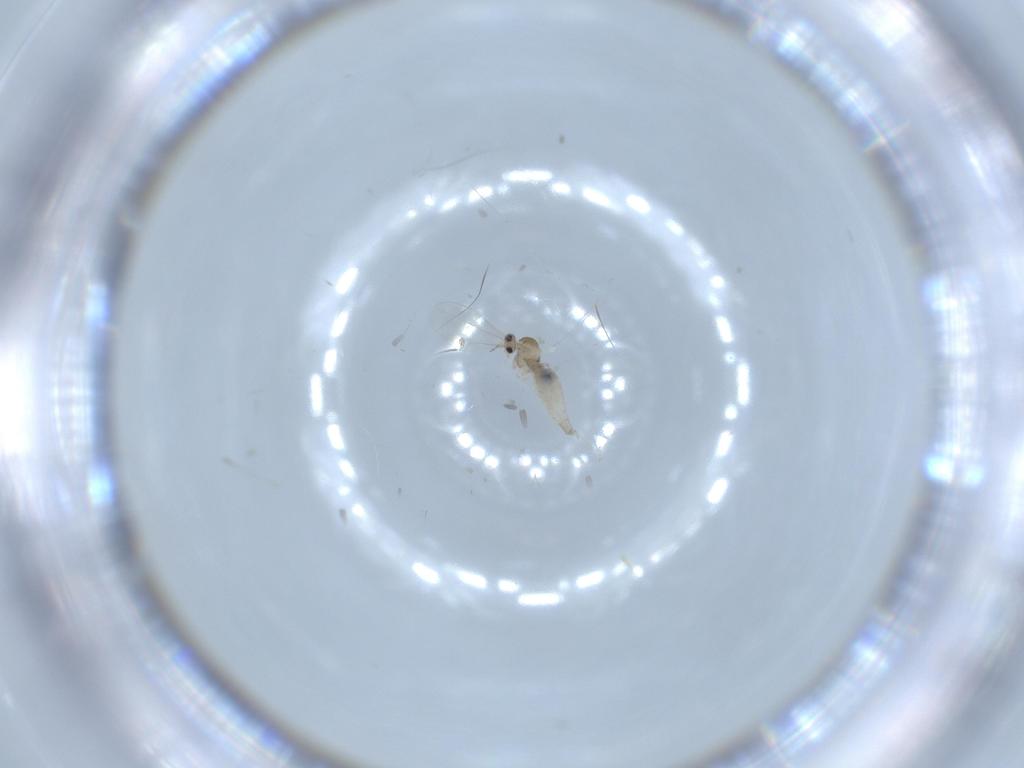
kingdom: Animalia
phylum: Arthropoda
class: Insecta
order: Diptera
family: Cecidomyiidae
